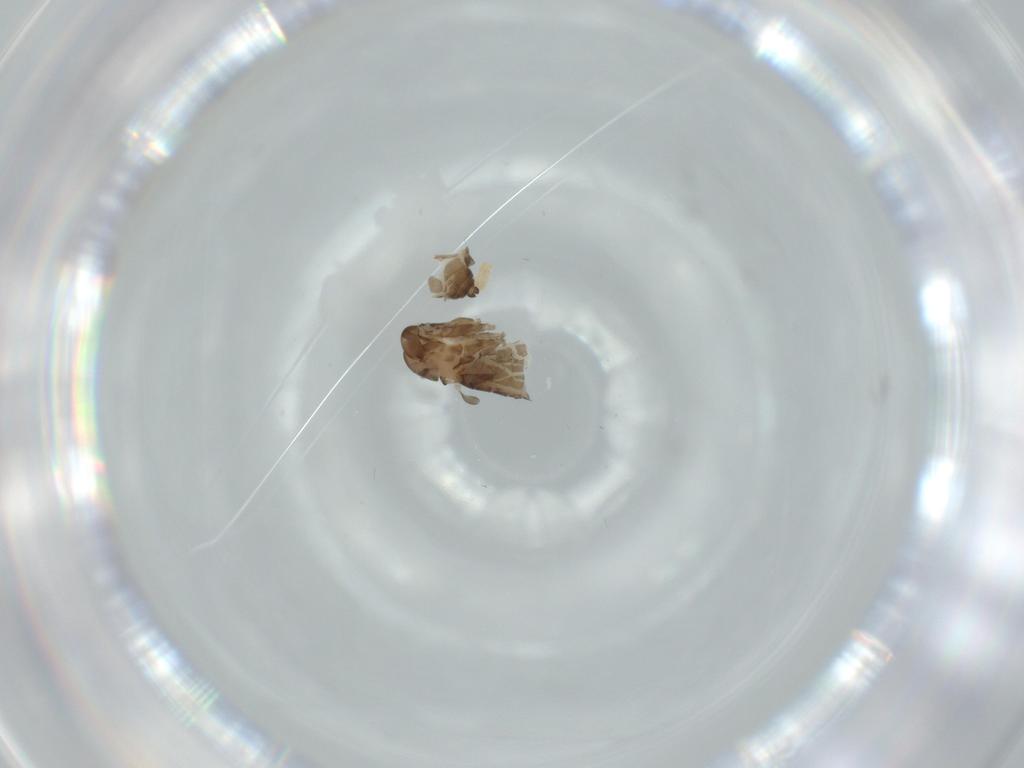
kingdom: Animalia
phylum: Arthropoda
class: Insecta
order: Diptera
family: Psychodidae
